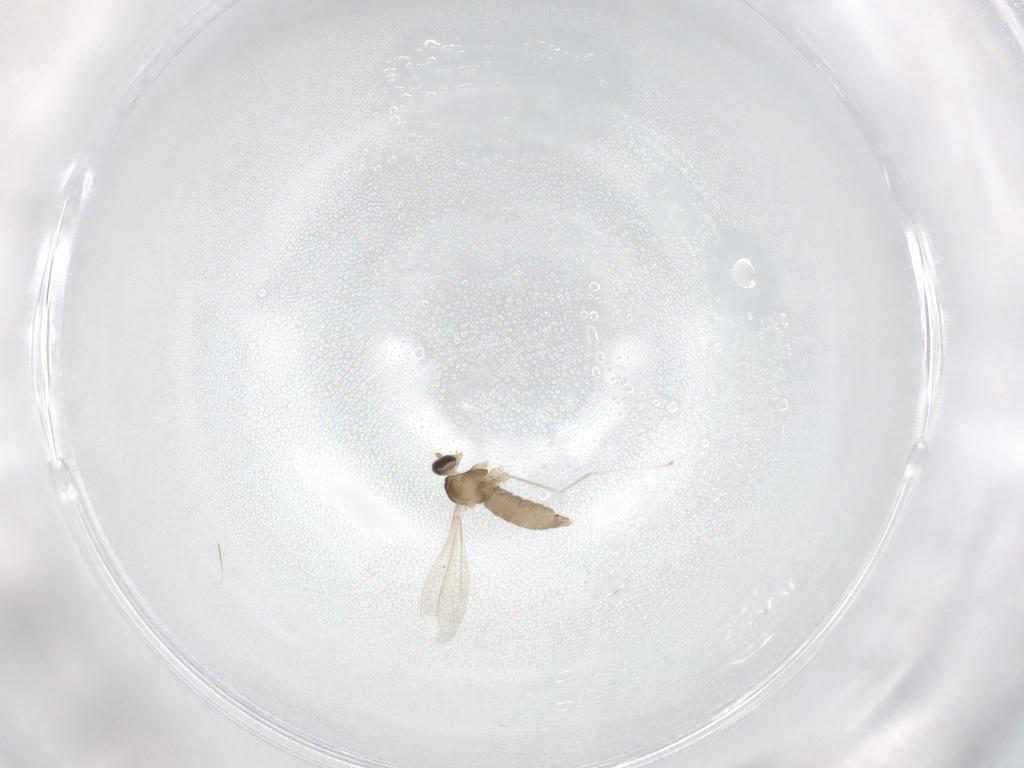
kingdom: Animalia
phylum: Arthropoda
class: Insecta
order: Diptera
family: Cecidomyiidae
